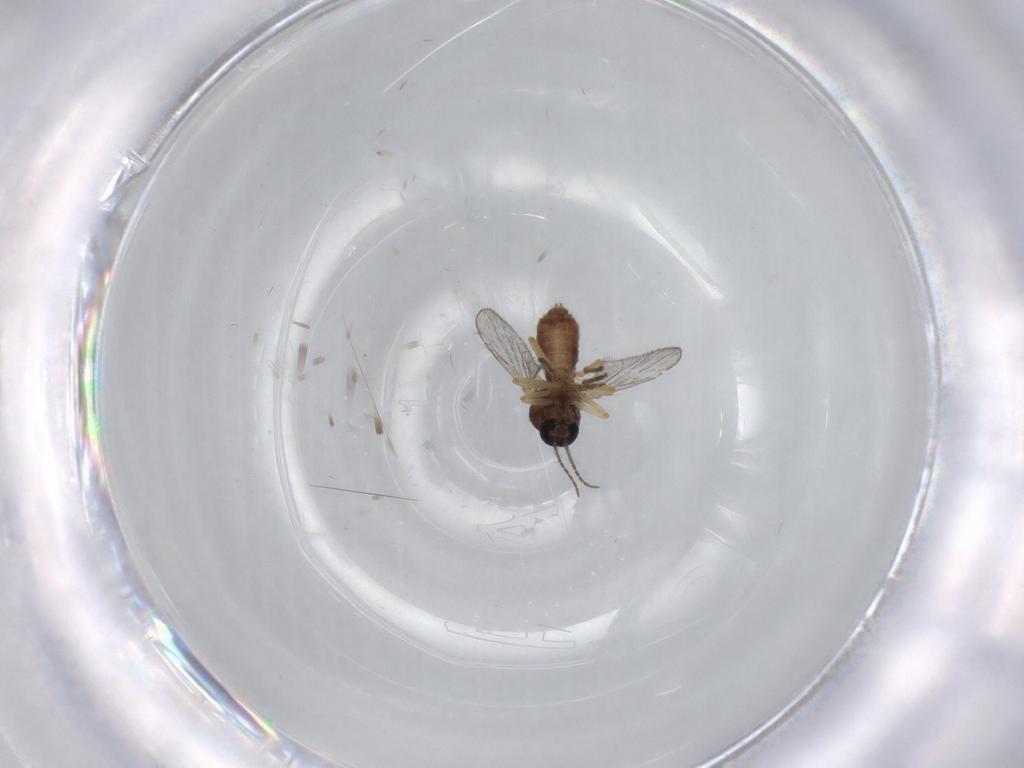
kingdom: Animalia
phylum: Arthropoda
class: Insecta
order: Diptera
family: Ceratopogonidae
